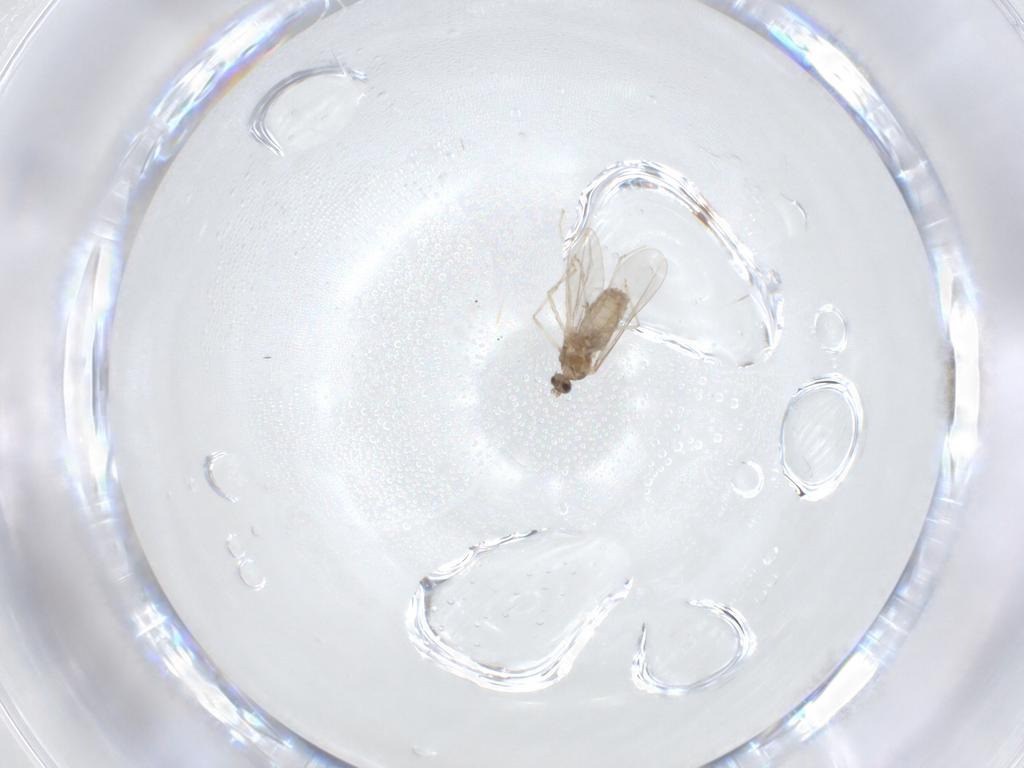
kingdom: Animalia
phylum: Arthropoda
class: Insecta
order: Diptera
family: Cecidomyiidae
